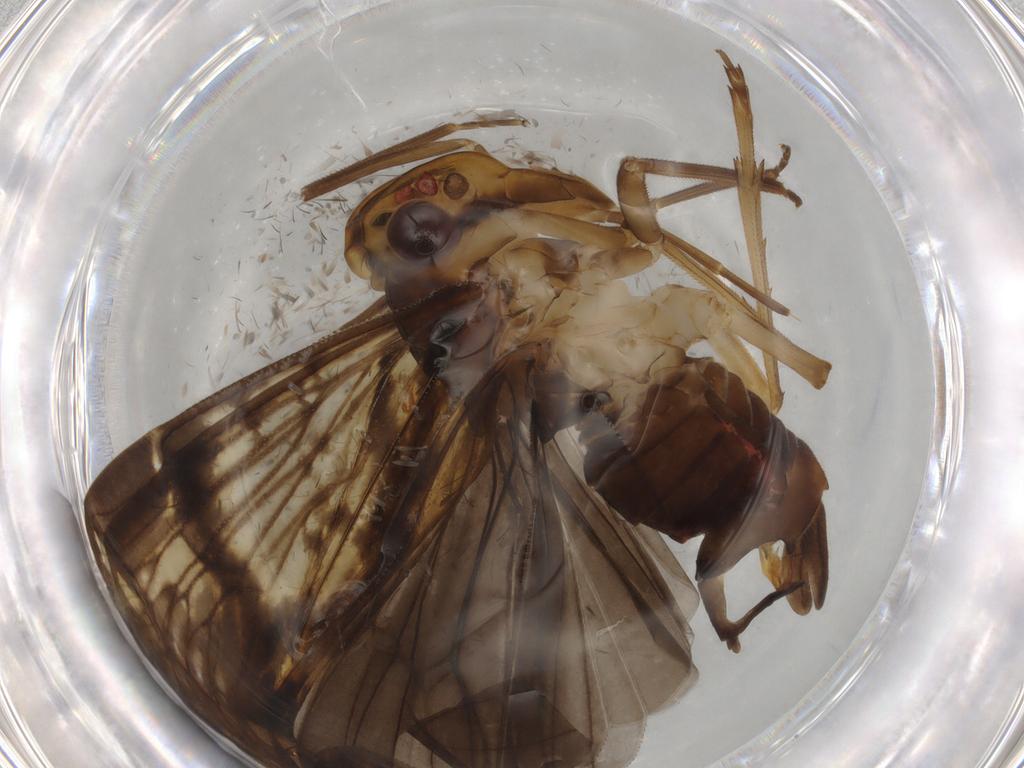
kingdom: Animalia
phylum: Arthropoda
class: Insecta
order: Hemiptera
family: Cixiidae
